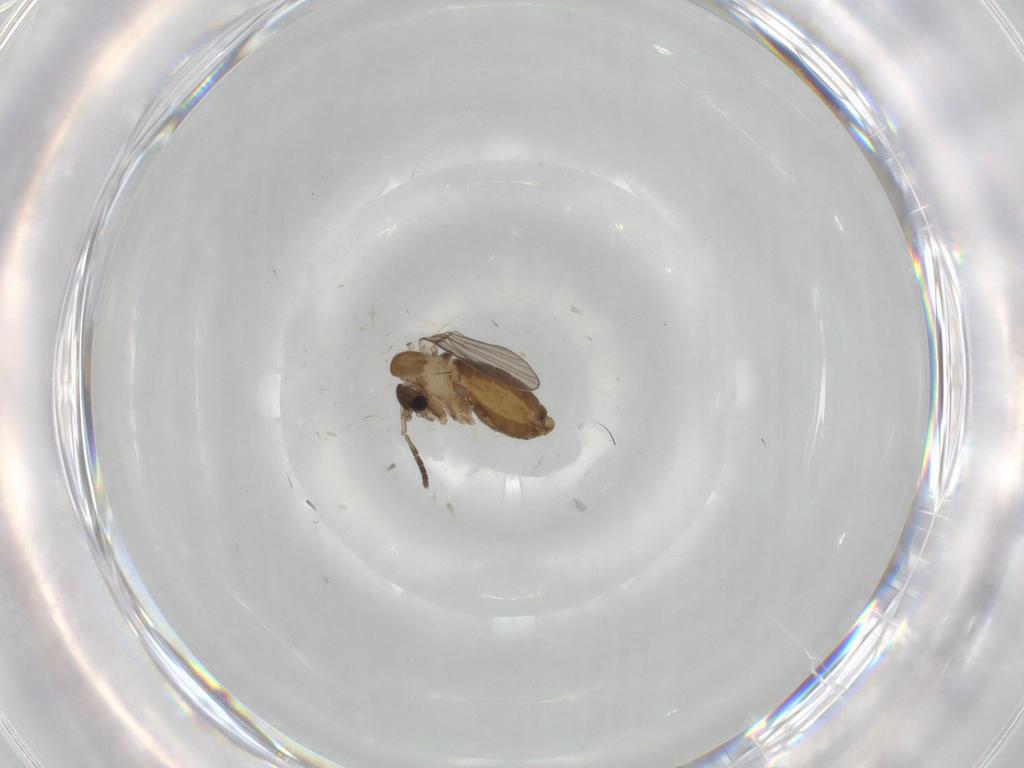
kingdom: Animalia
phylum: Arthropoda
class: Insecta
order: Diptera
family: Psychodidae
